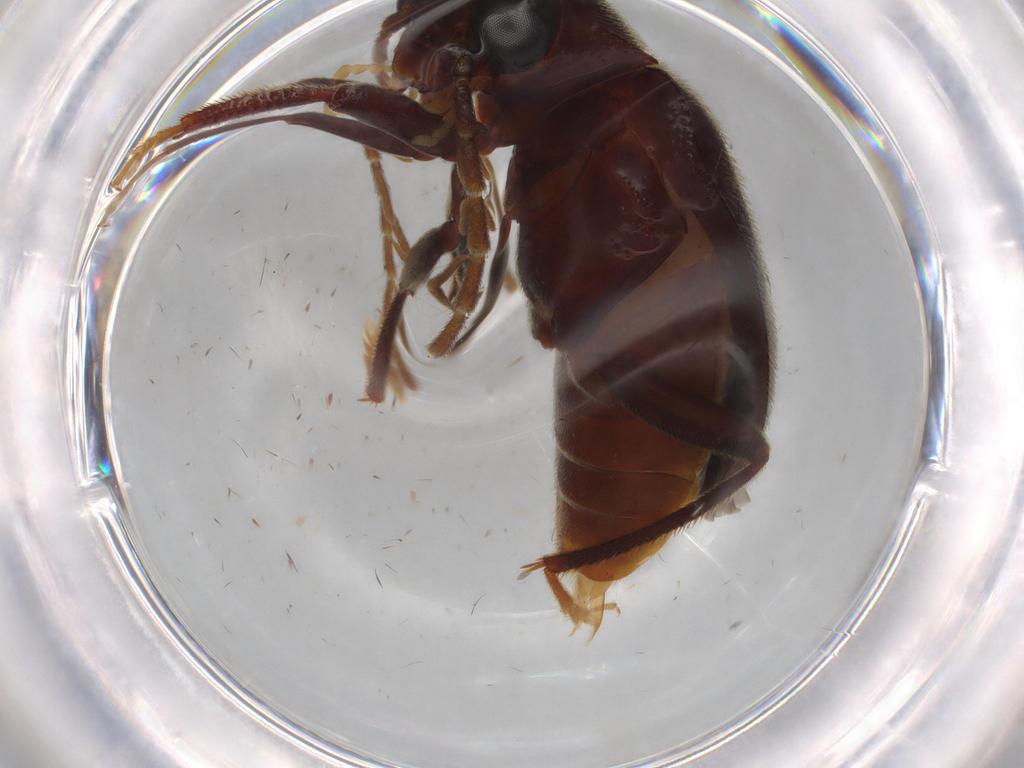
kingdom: Animalia
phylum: Arthropoda
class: Insecta
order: Coleoptera
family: Ptilodactylidae
